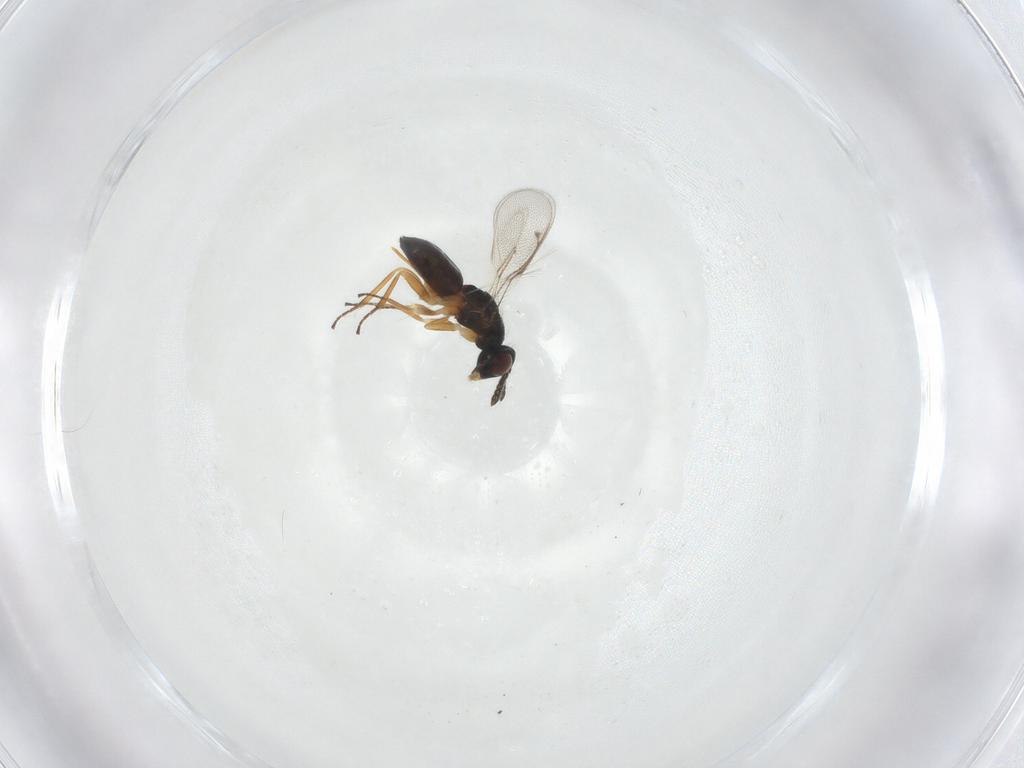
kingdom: Animalia
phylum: Arthropoda
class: Insecta
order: Hymenoptera
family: Eulophidae
